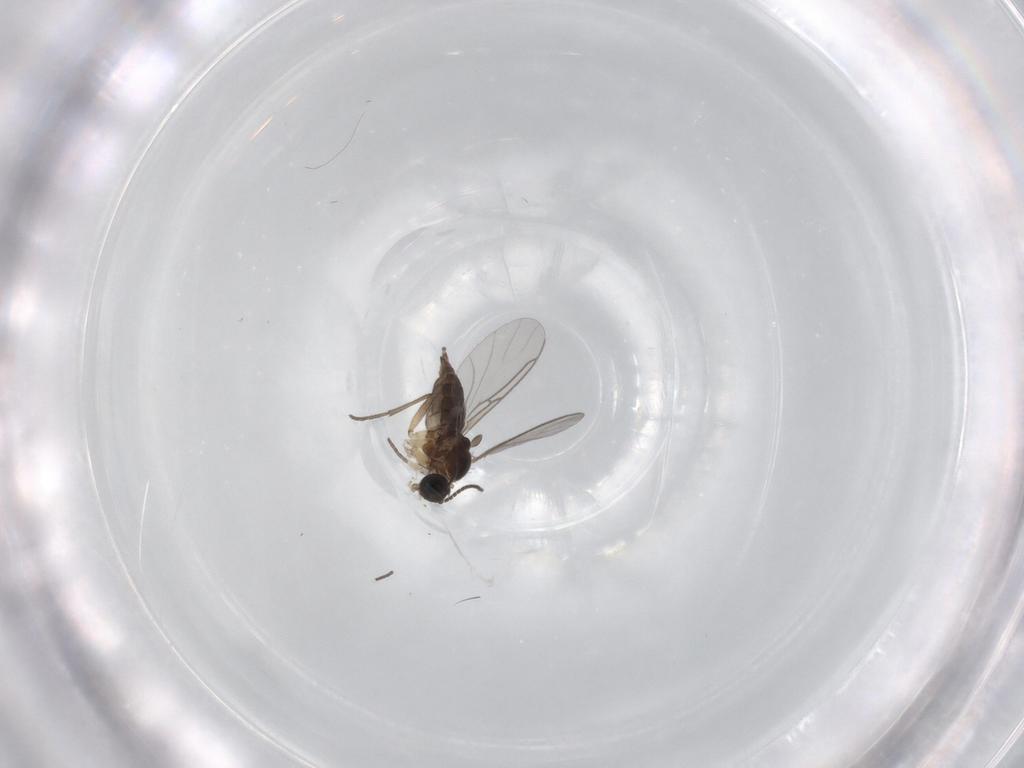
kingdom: Animalia
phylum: Arthropoda
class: Insecta
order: Diptera
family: Sciaridae
